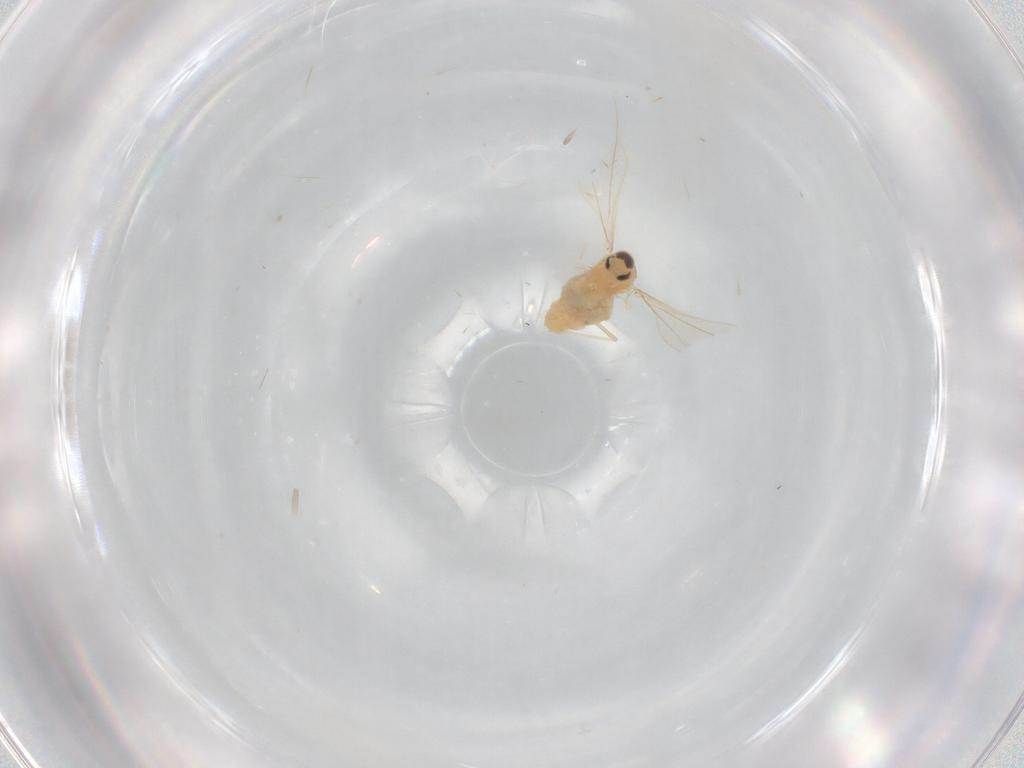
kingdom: Animalia
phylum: Arthropoda
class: Insecta
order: Diptera
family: Cecidomyiidae
